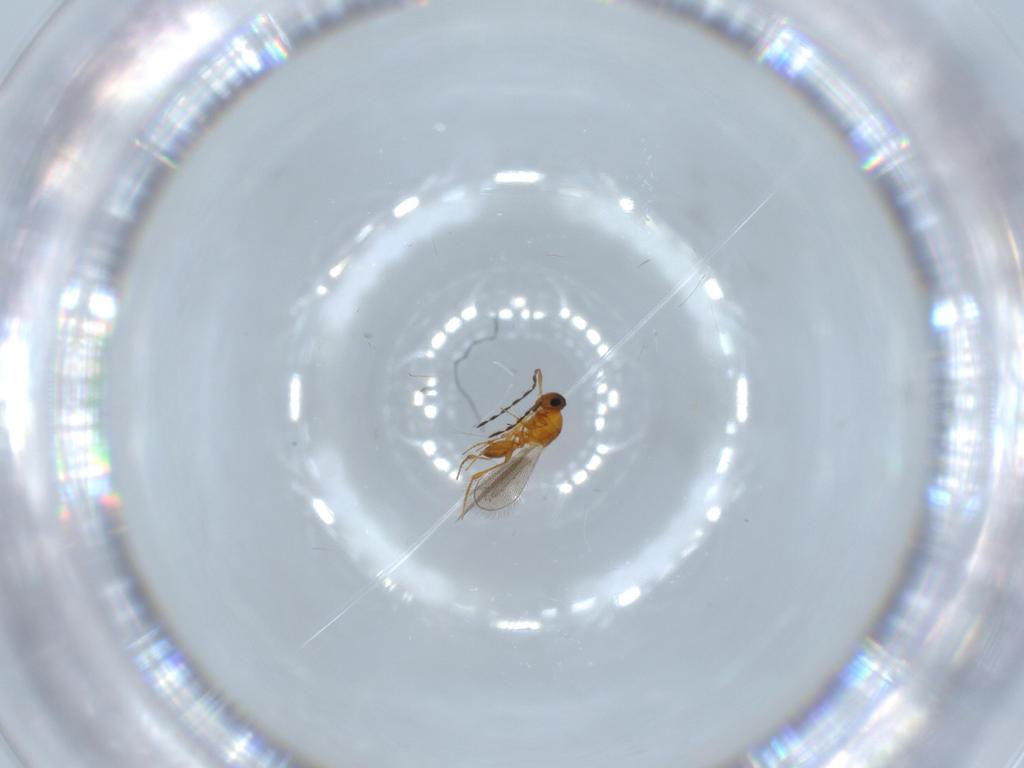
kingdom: Animalia
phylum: Arthropoda
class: Insecta
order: Hymenoptera
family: Platygastridae
